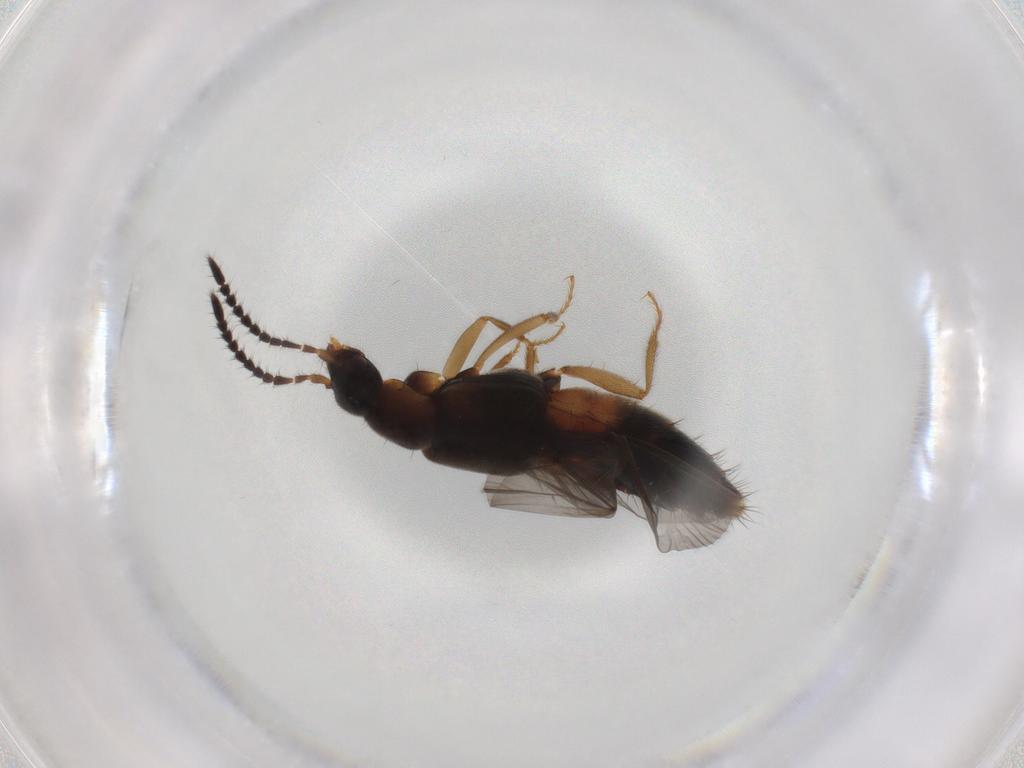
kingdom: Animalia
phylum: Arthropoda
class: Insecta
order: Coleoptera
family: Staphylinidae
